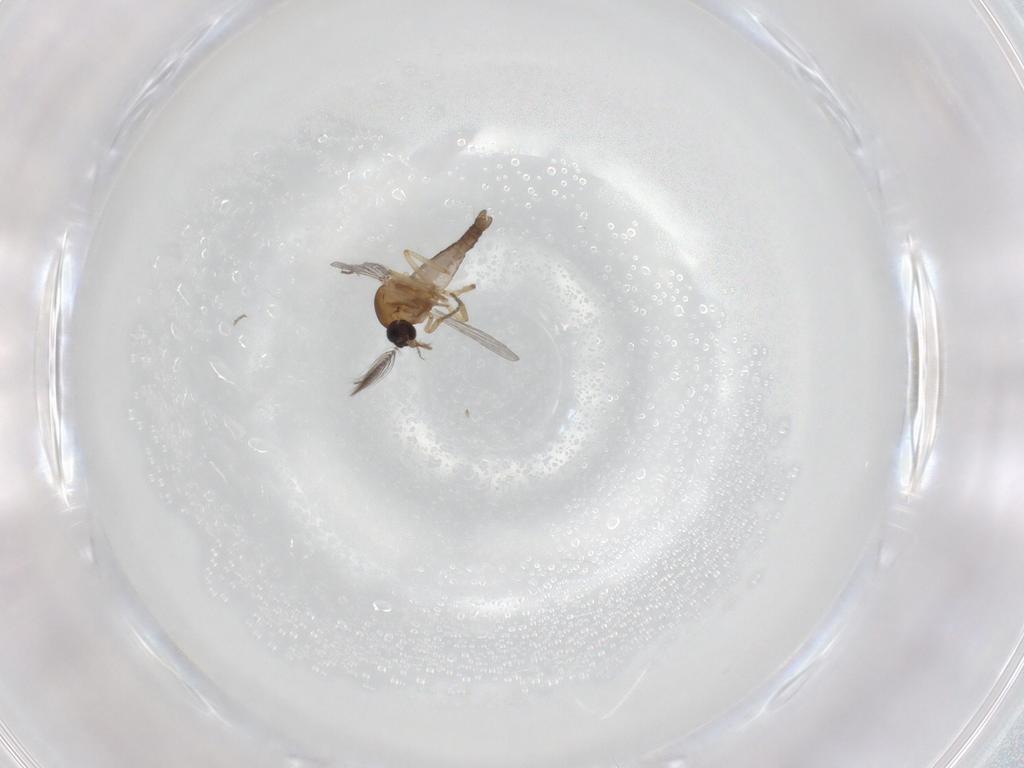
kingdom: Animalia
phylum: Arthropoda
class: Insecta
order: Diptera
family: Ceratopogonidae
